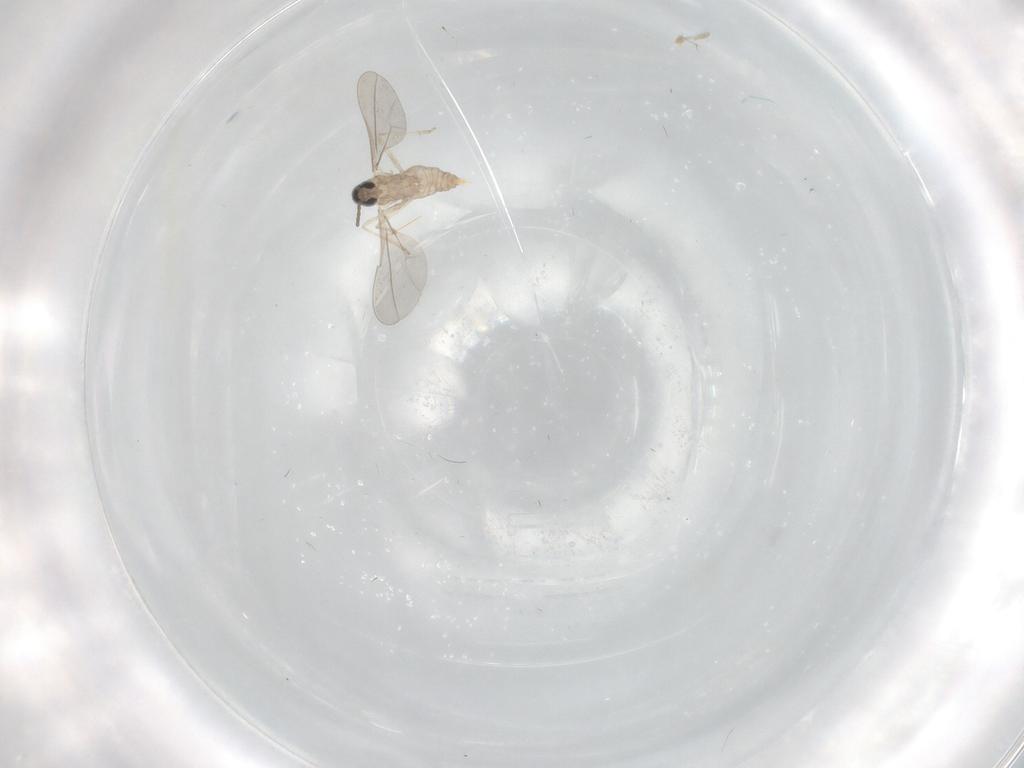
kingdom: Animalia
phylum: Arthropoda
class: Insecta
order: Diptera
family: Cecidomyiidae
